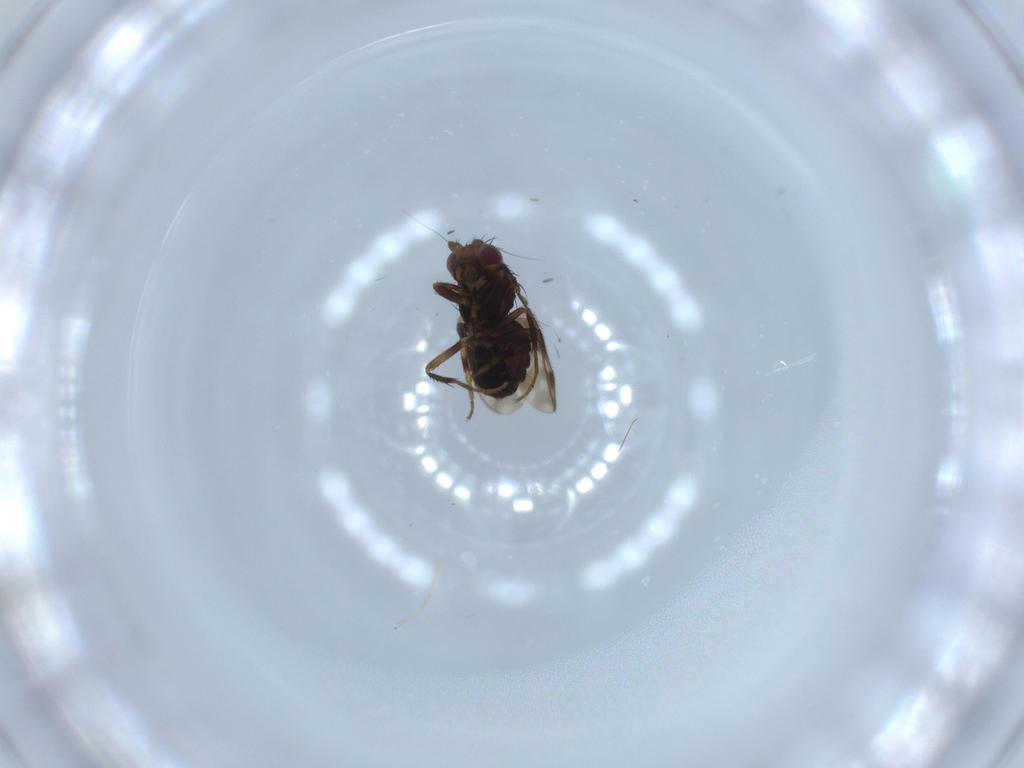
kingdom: Animalia
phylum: Arthropoda
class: Insecta
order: Diptera
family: Sphaeroceridae
